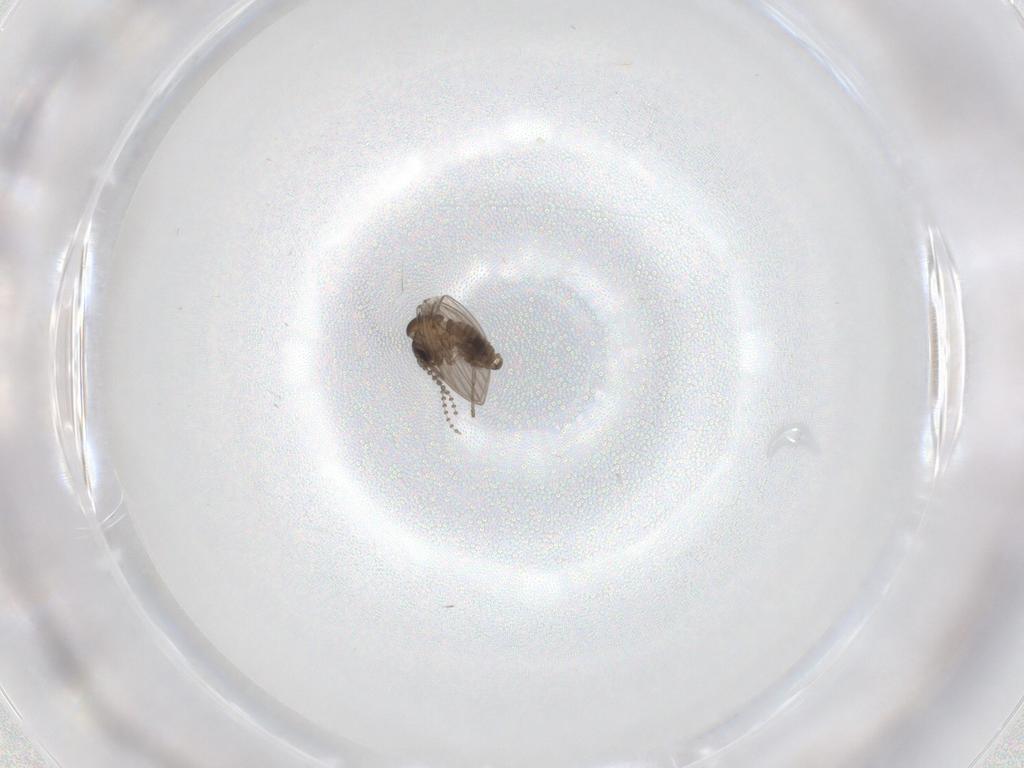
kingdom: Animalia
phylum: Arthropoda
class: Insecta
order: Diptera
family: Psychodidae
